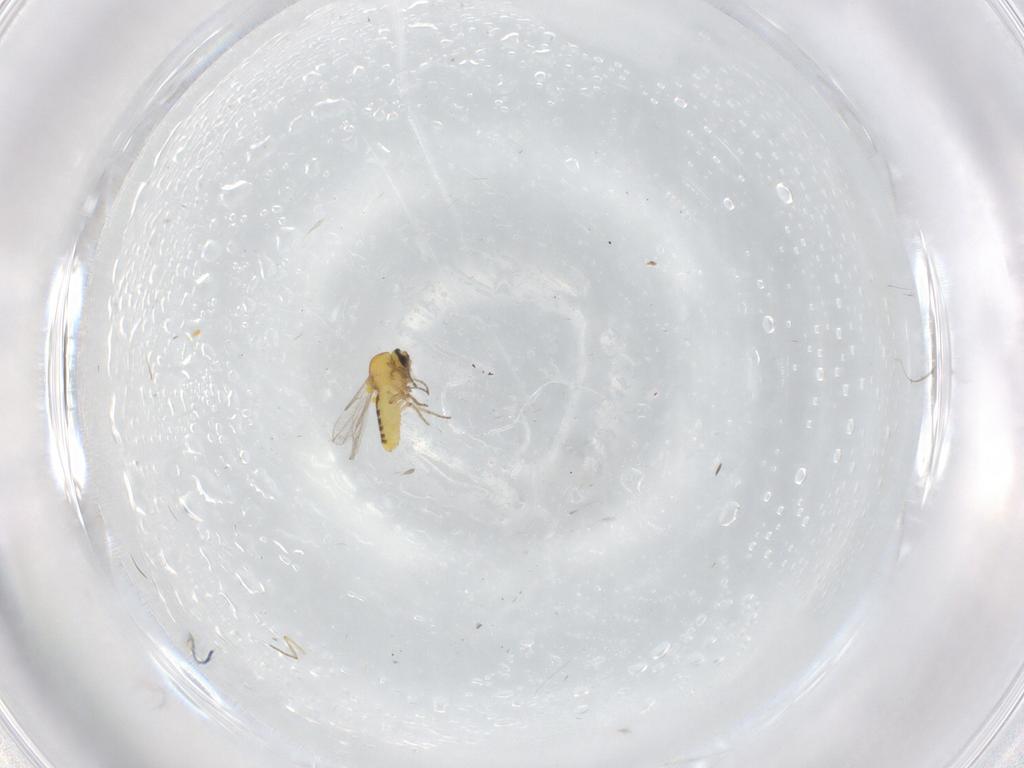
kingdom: Animalia
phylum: Arthropoda
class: Insecta
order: Diptera
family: Ceratopogonidae
